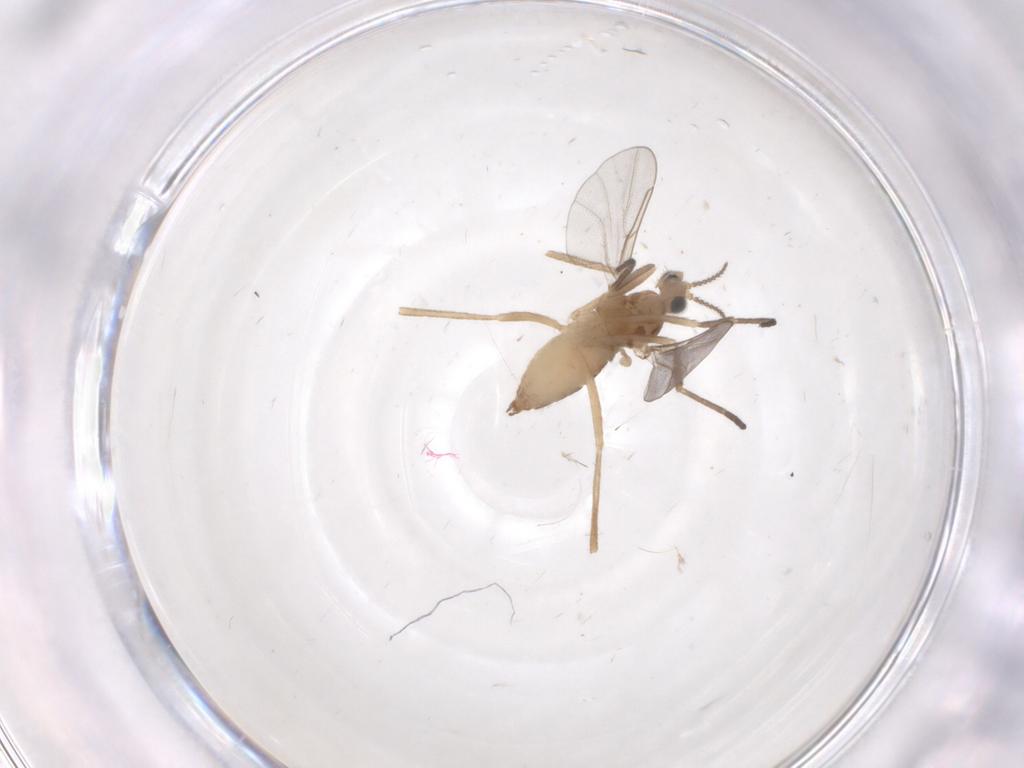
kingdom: Animalia
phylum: Arthropoda
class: Insecta
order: Diptera
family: Cecidomyiidae
